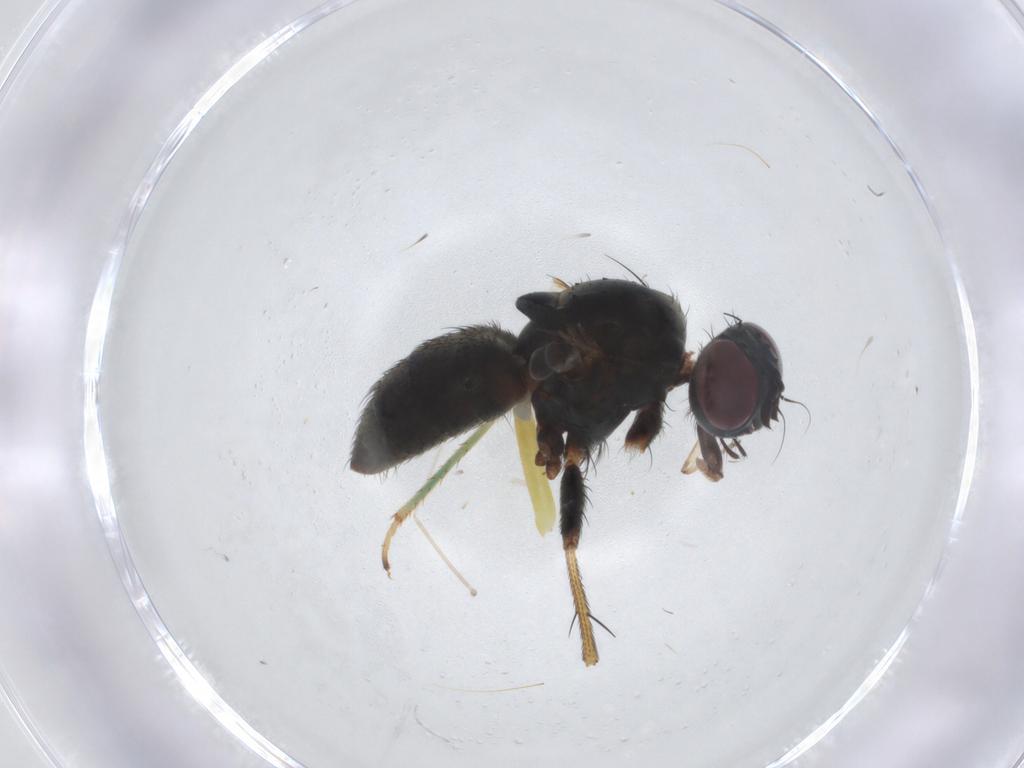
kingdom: Animalia
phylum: Arthropoda
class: Insecta
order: Diptera
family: Muscidae
